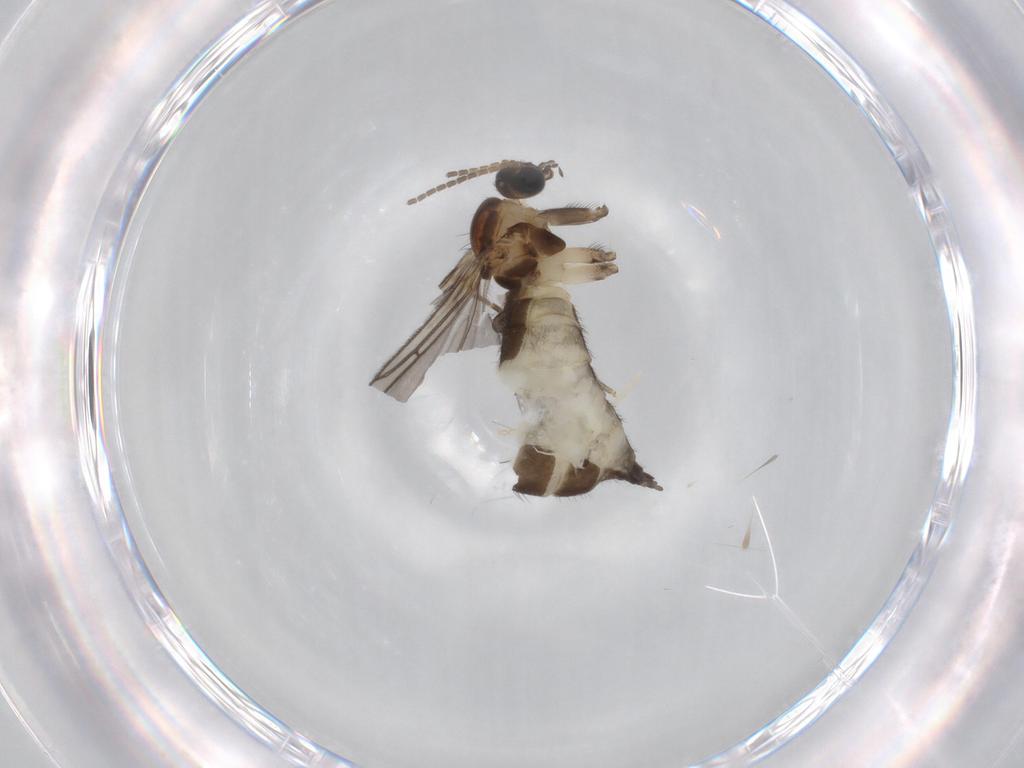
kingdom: Animalia
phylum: Arthropoda
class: Insecta
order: Diptera
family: Sciaridae
